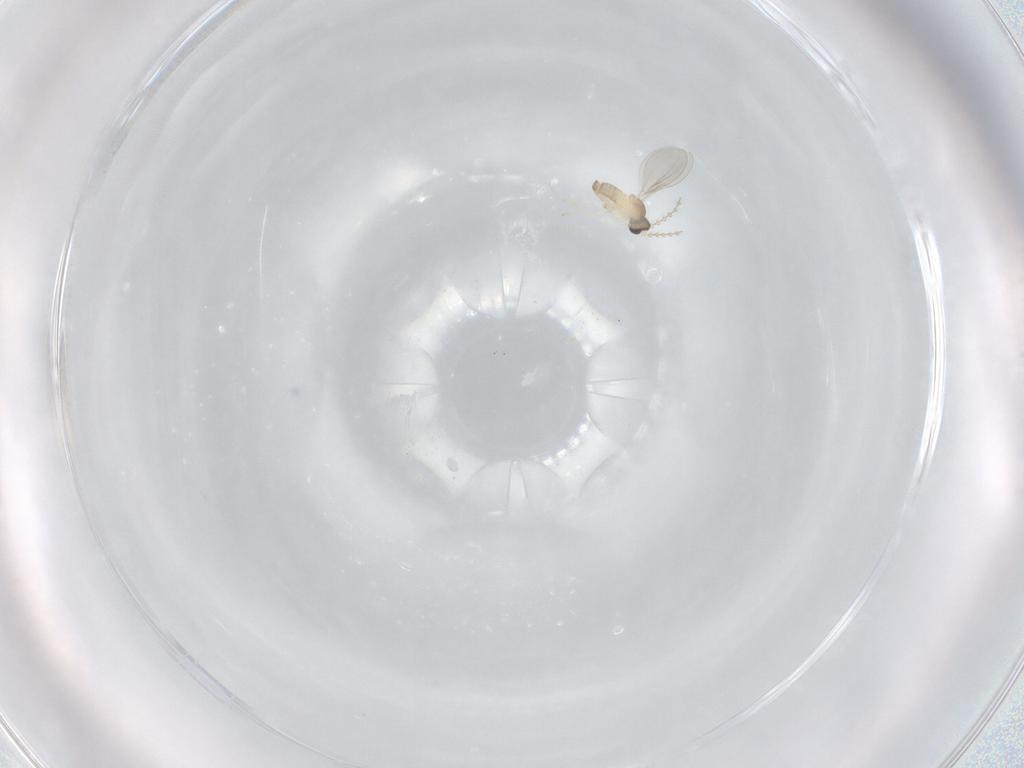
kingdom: Animalia
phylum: Arthropoda
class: Insecta
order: Diptera
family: Cecidomyiidae
